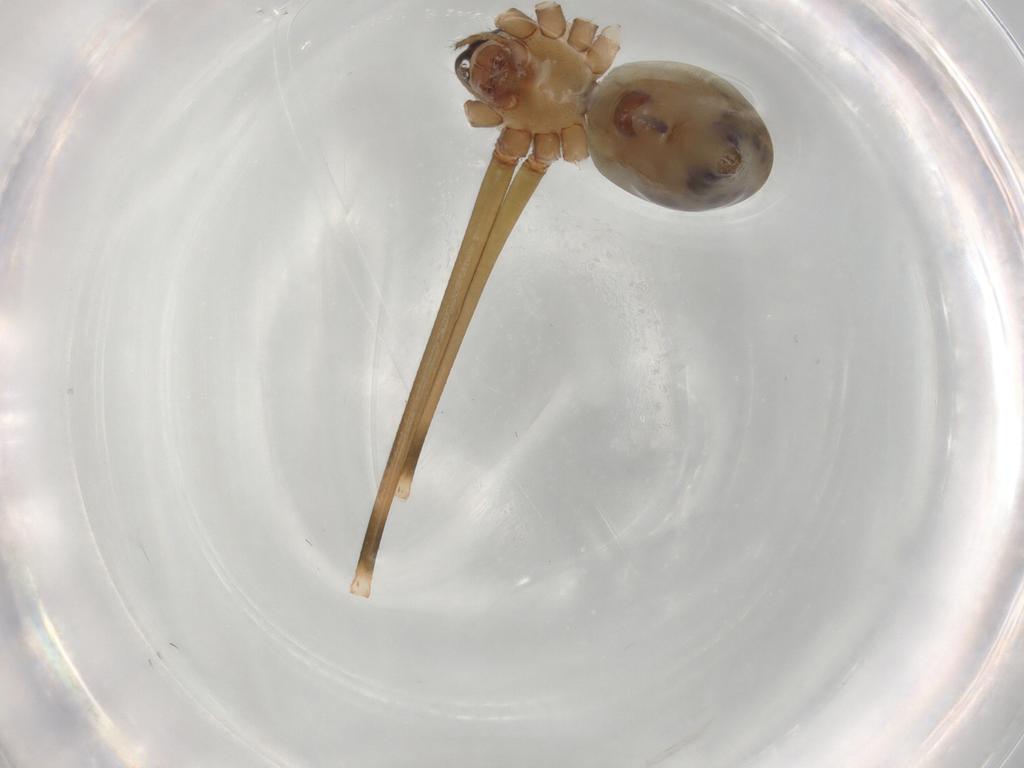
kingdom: Animalia
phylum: Arthropoda
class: Arachnida
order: Araneae
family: Pholcidae
